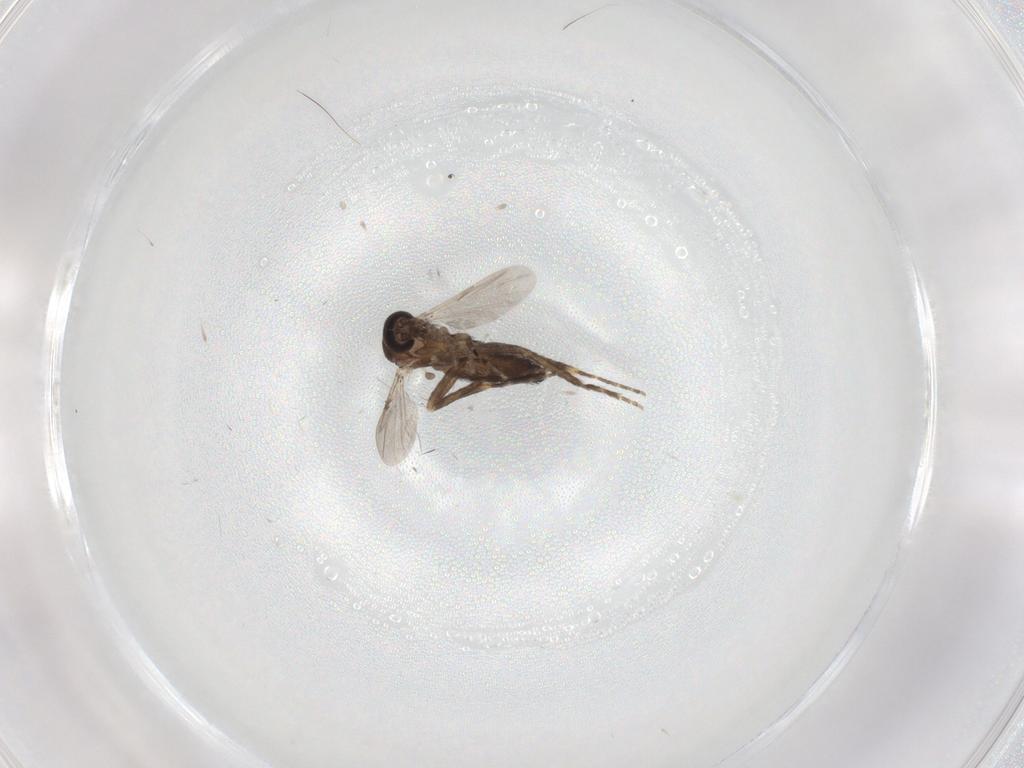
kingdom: Animalia
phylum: Arthropoda
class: Insecta
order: Diptera
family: Ceratopogonidae
